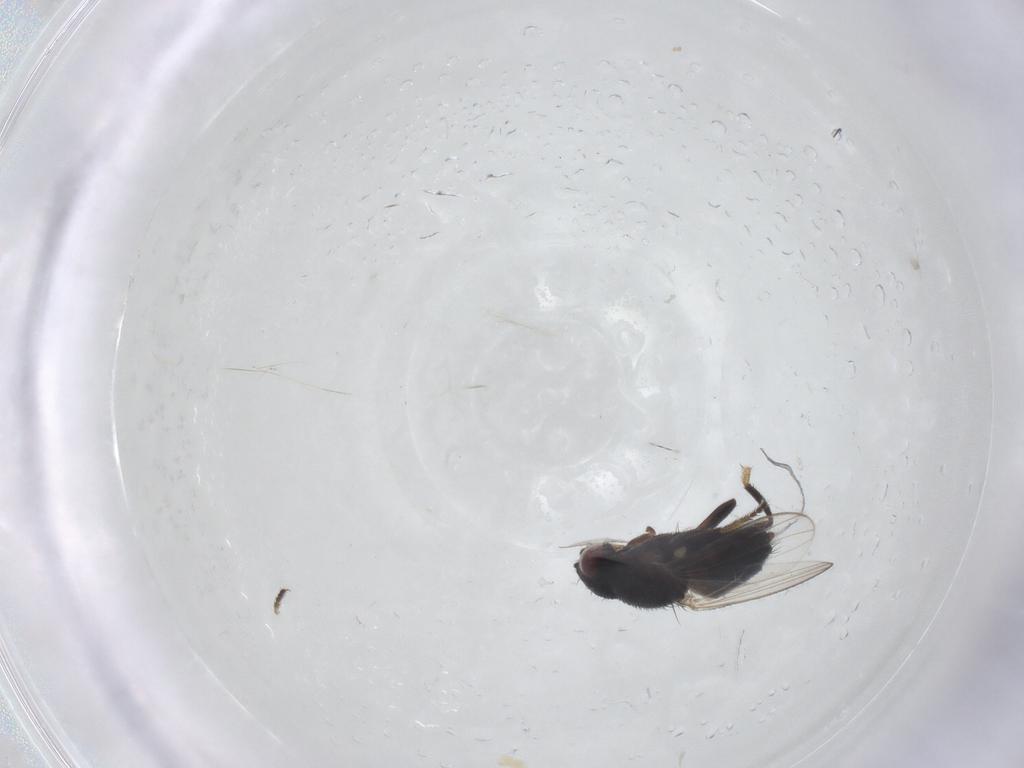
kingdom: Animalia
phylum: Arthropoda
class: Insecta
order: Diptera
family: Milichiidae
